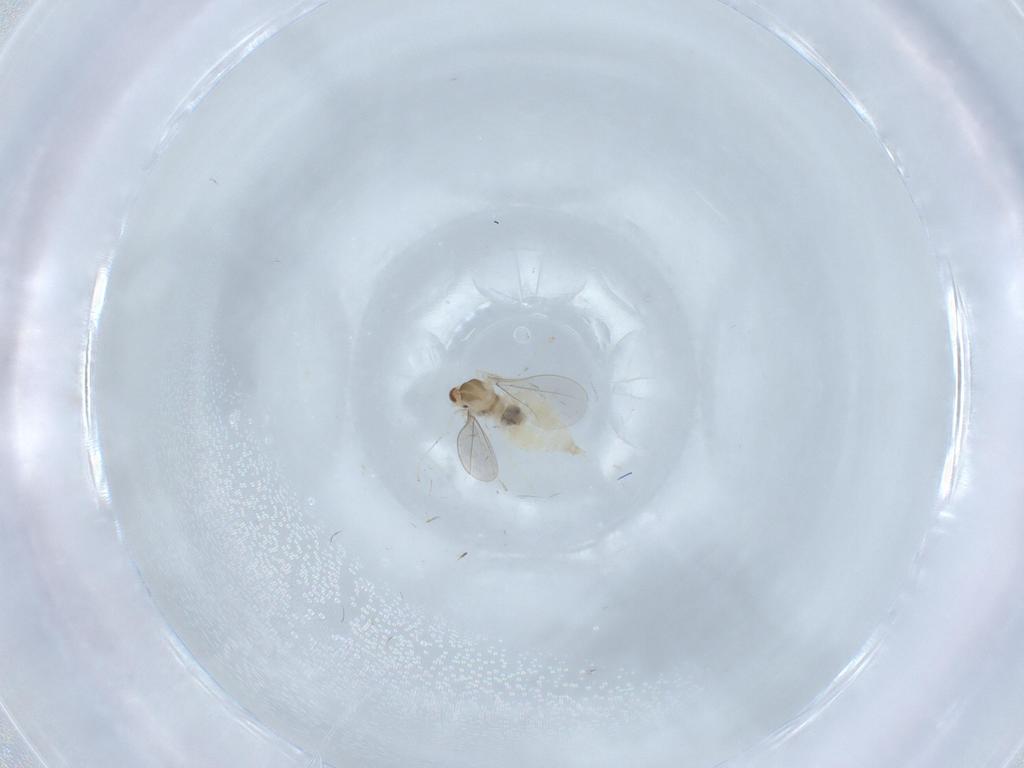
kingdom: Animalia
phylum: Arthropoda
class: Insecta
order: Diptera
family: Cecidomyiidae
